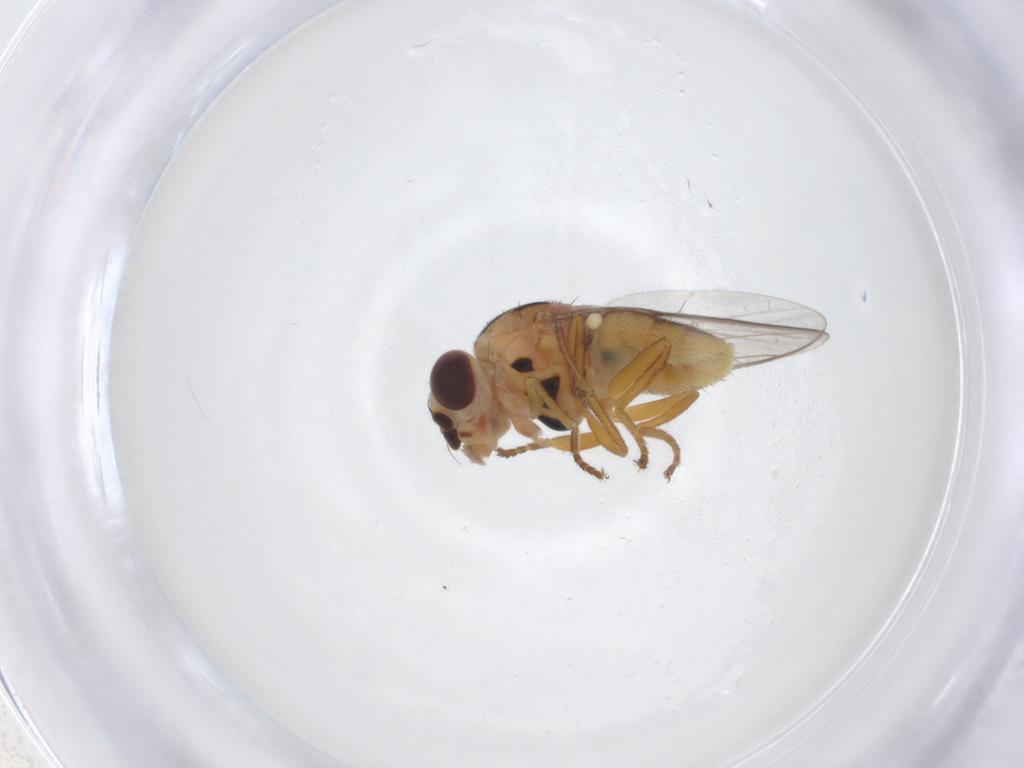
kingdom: Animalia
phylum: Arthropoda
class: Insecta
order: Diptera
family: Chloropidae
